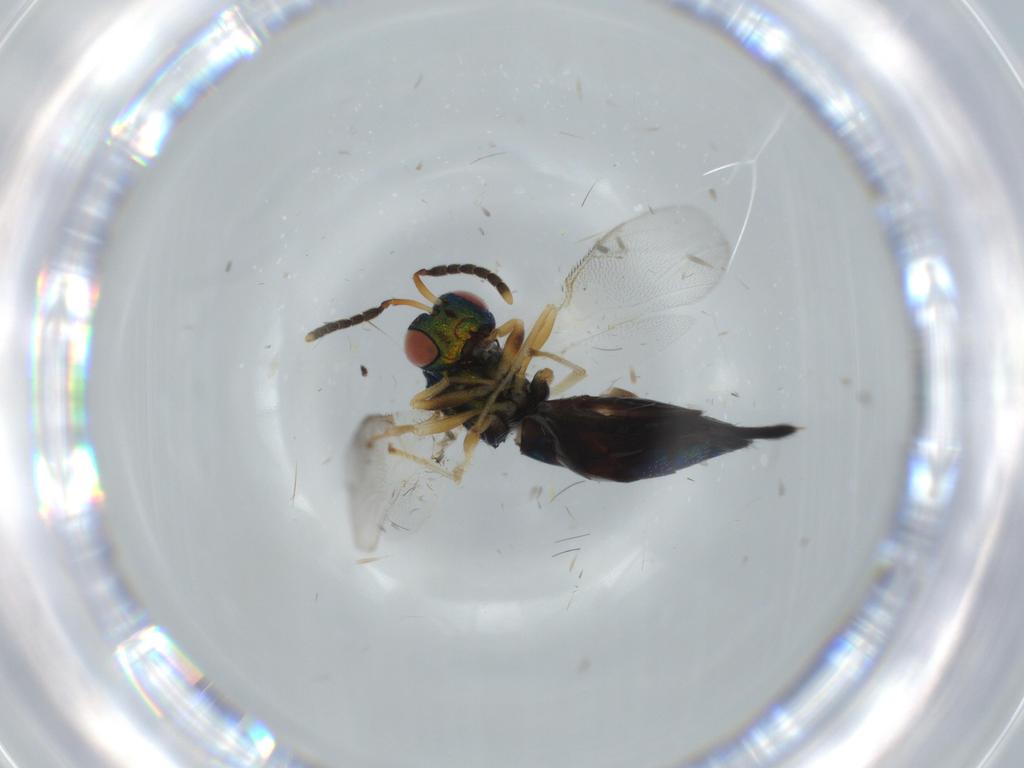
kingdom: Animalia
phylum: Arthropoda
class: Insecta
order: Hymenoptera
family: Pteromalidae
